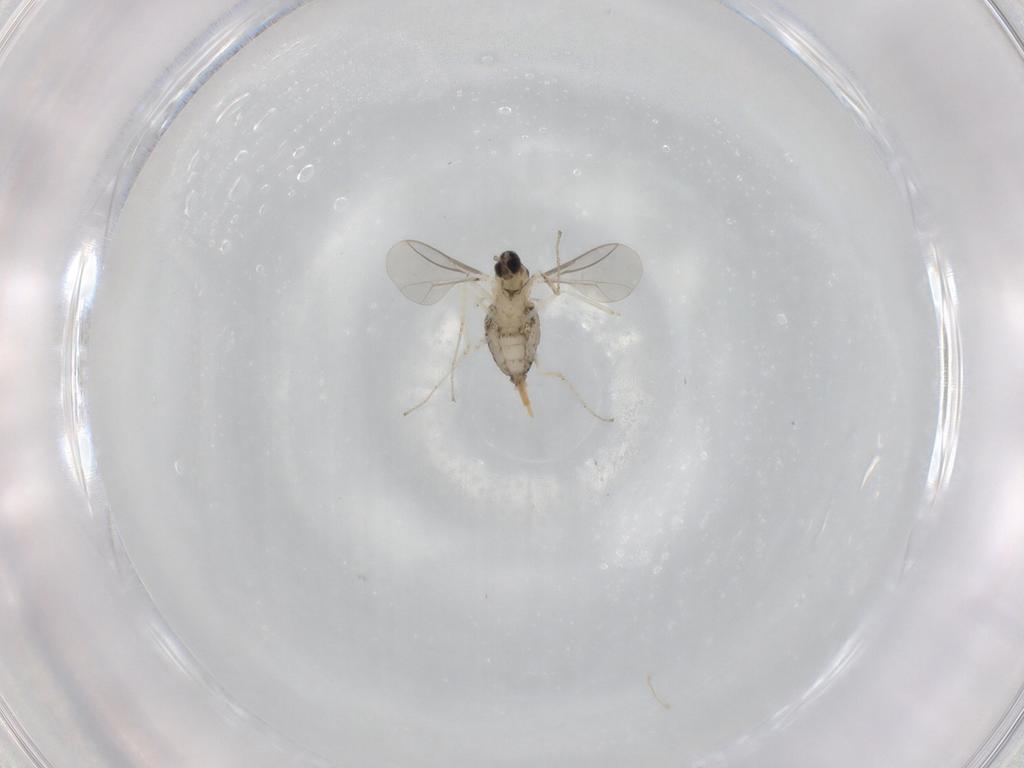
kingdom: Animalia
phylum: Arthropoda
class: Insecta
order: Diptera
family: Cecidomyiidae
